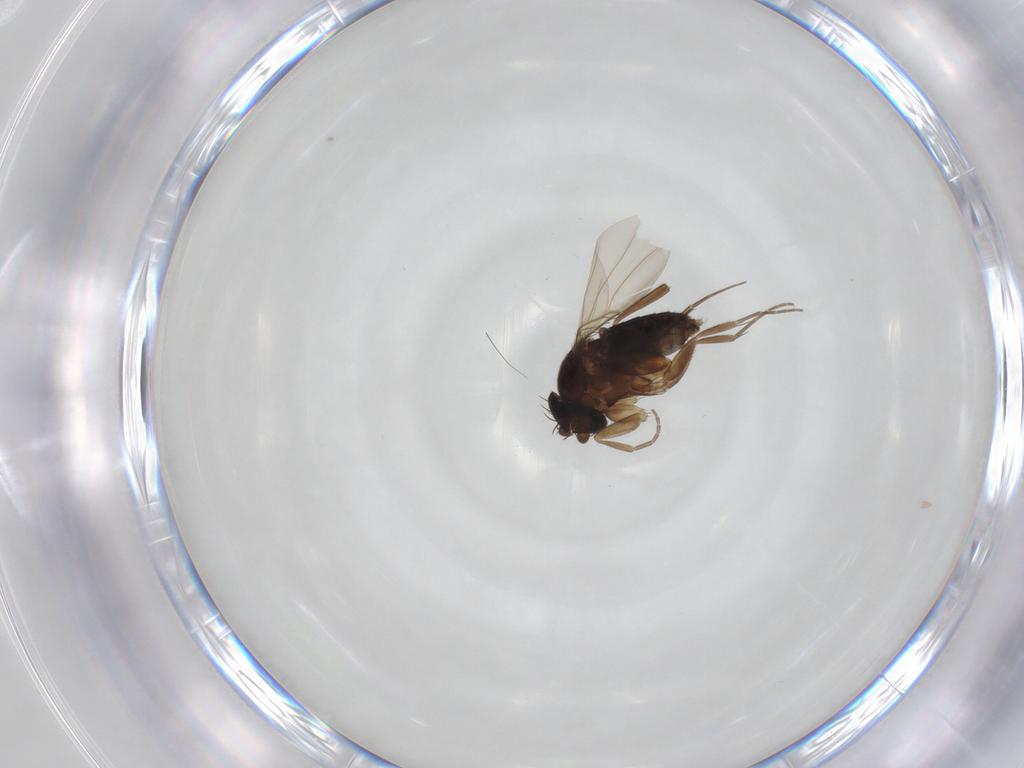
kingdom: Animalia
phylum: Arthropoda
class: Insecta
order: Diptera
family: Phoridae
